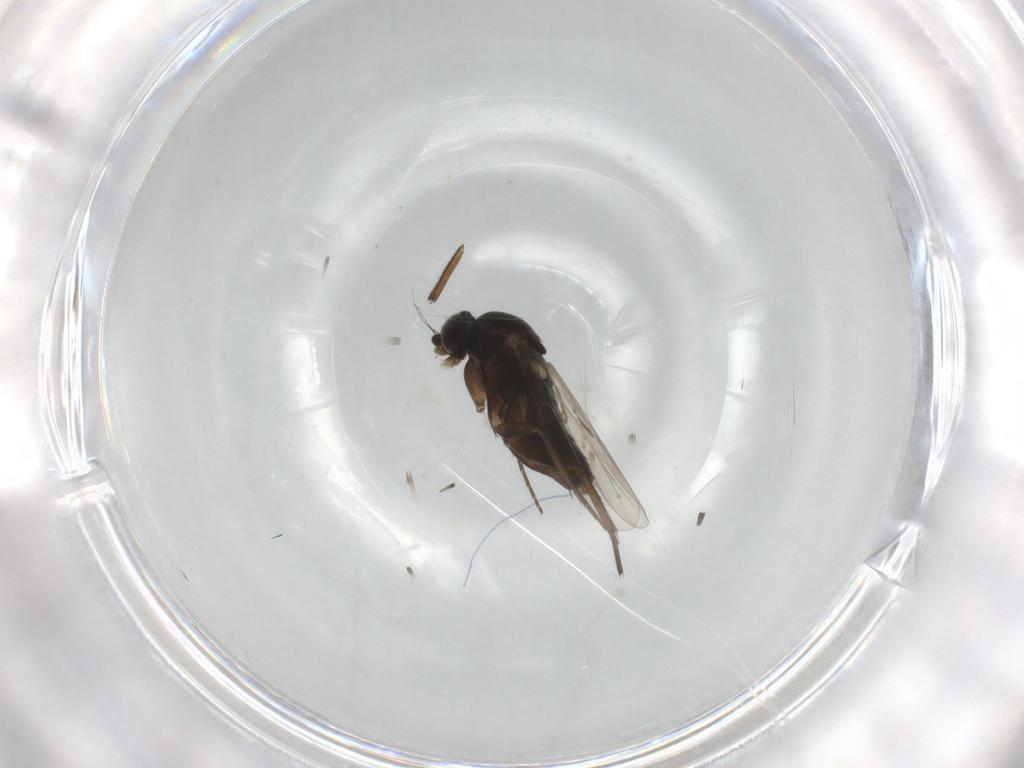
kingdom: Animalia
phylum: Arthropoda
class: Insecta
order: Diptera
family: Phoridae
